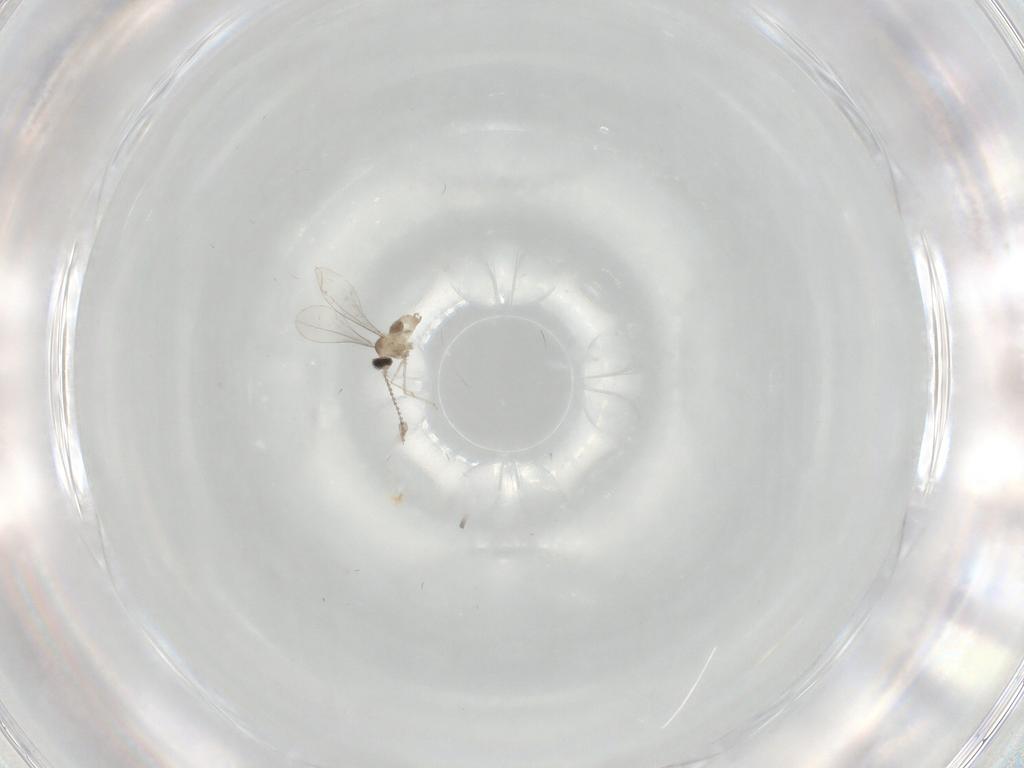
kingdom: Animalia
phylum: Arthropoda
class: Insecta
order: Diptera
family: Cecidomyiidae
